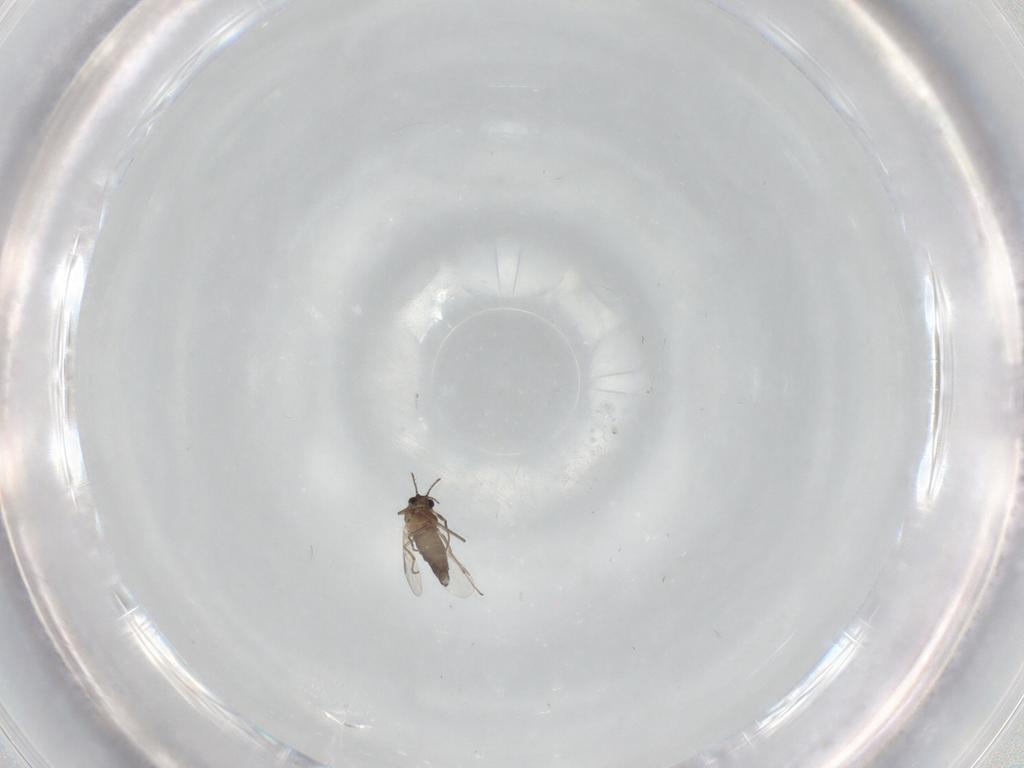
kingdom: Animalia
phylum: Arthropoda
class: Insecta
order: Diptera
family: Chironomidae
